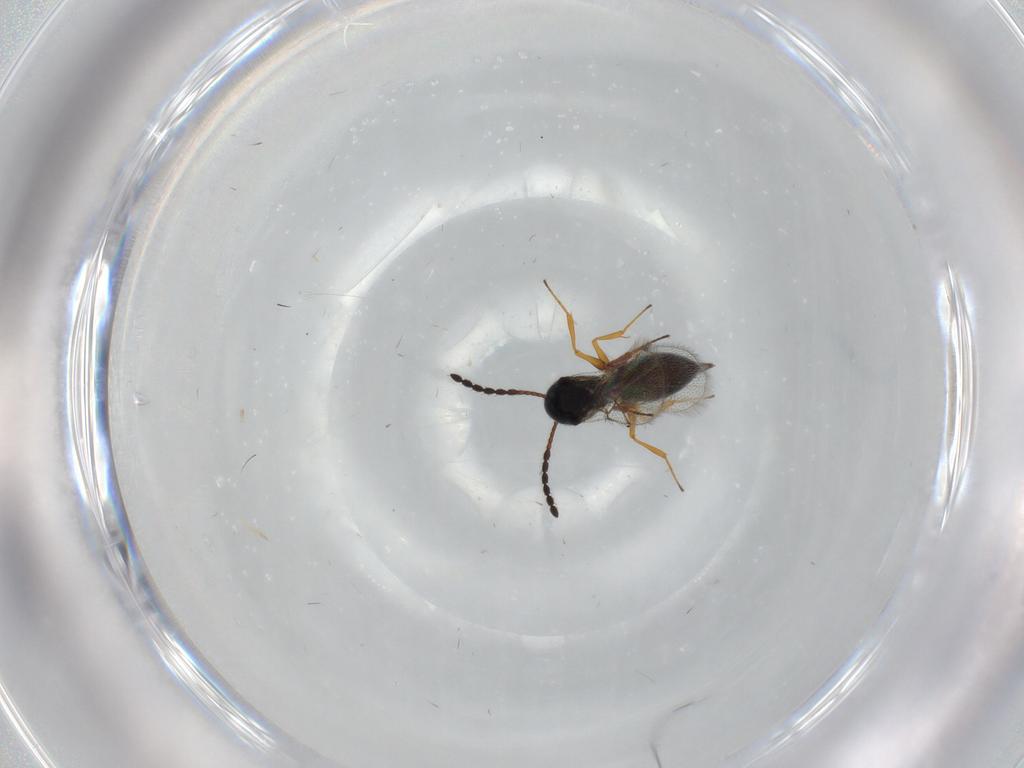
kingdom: Animalia
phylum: Arthropoda
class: Insecta
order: Hymenoptera
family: Figitidae
